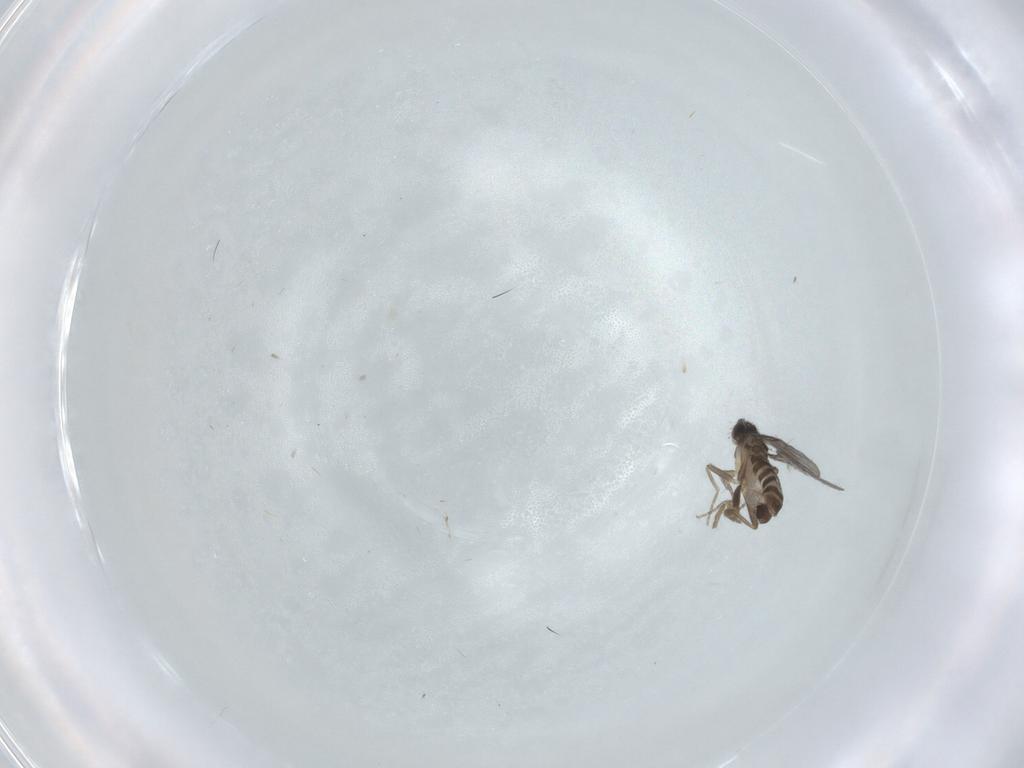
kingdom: Animalia
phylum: Arthropoda
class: Insecta
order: Diptera
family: Cecidomyiidae
